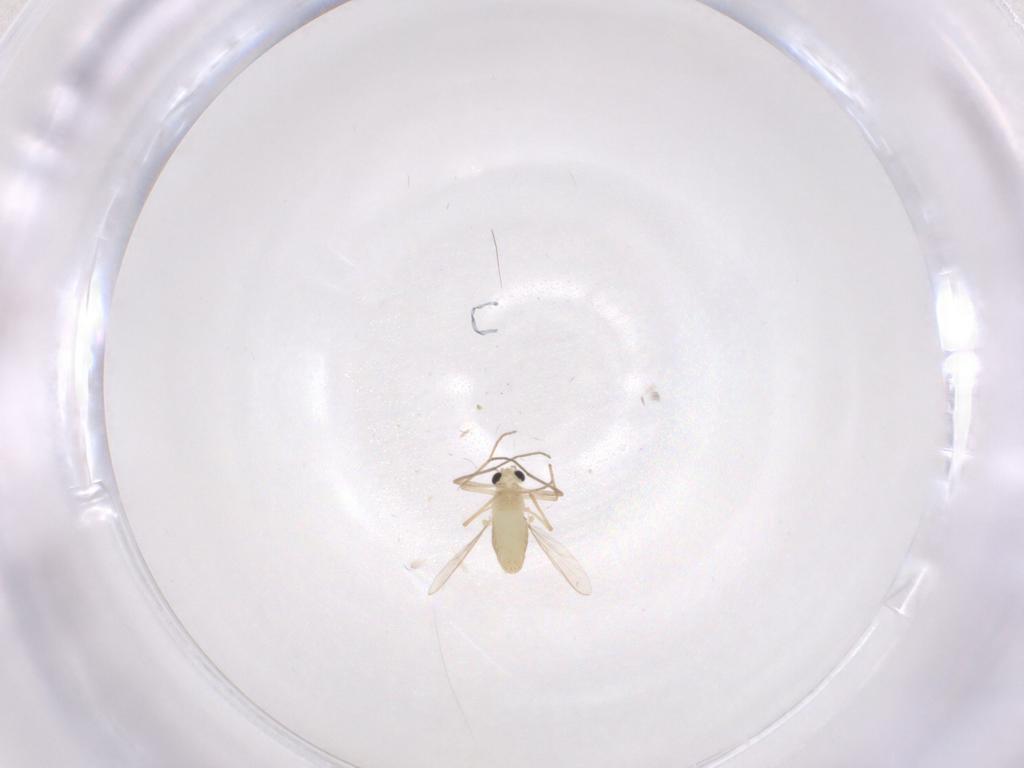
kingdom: Animalia
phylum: Arthropoda
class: Insecta
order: Diptera
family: Chironomidae
